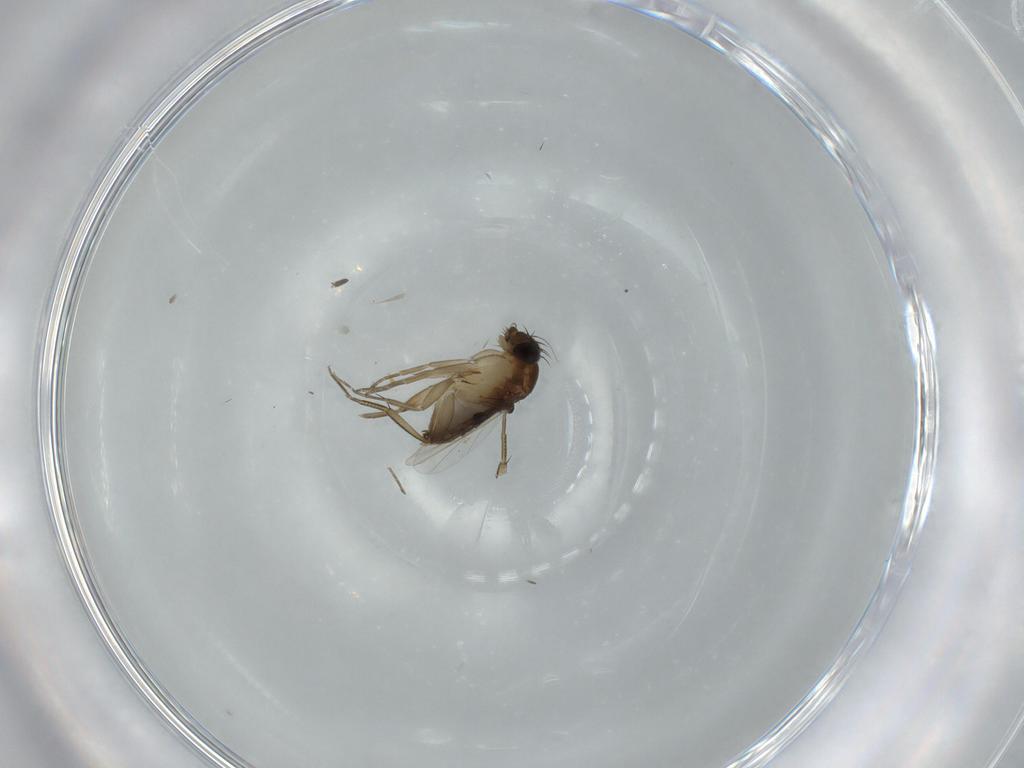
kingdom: Animalia
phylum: Arthropoda
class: Insecta
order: Diptera
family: Phoridae
